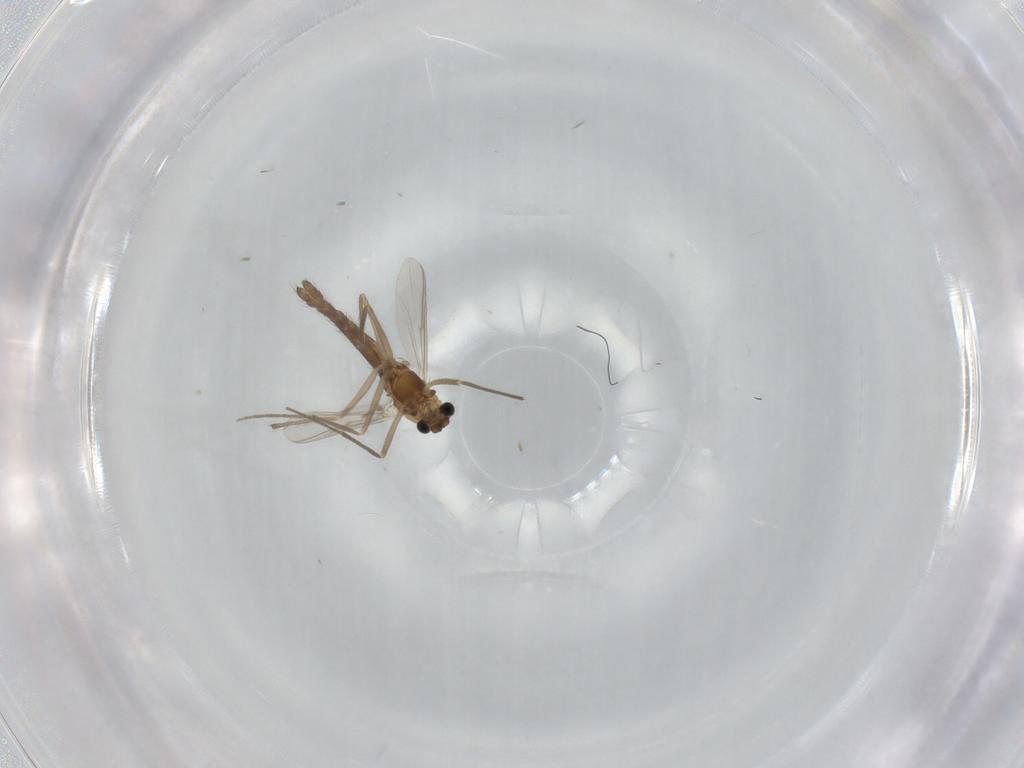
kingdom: Animalia
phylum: Arthropoda
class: Insecta
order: Diptera
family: Chironomidae
